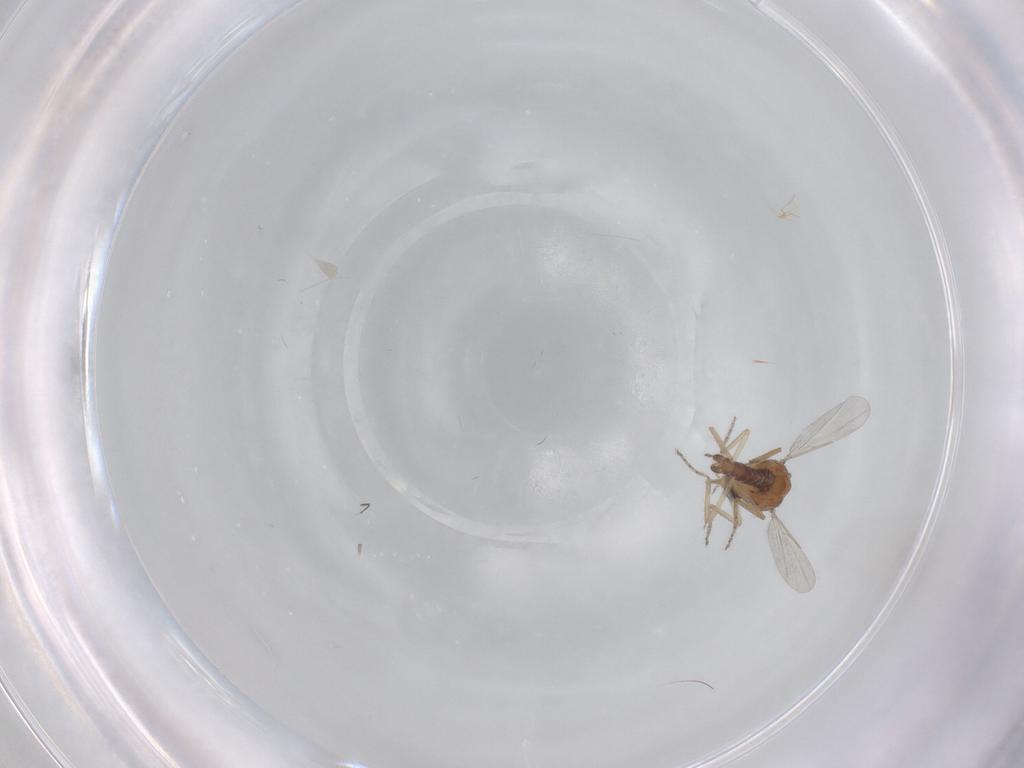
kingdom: Animalia
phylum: Arthropoda
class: Insecta
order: Diptera
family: Ceratopogonidae
